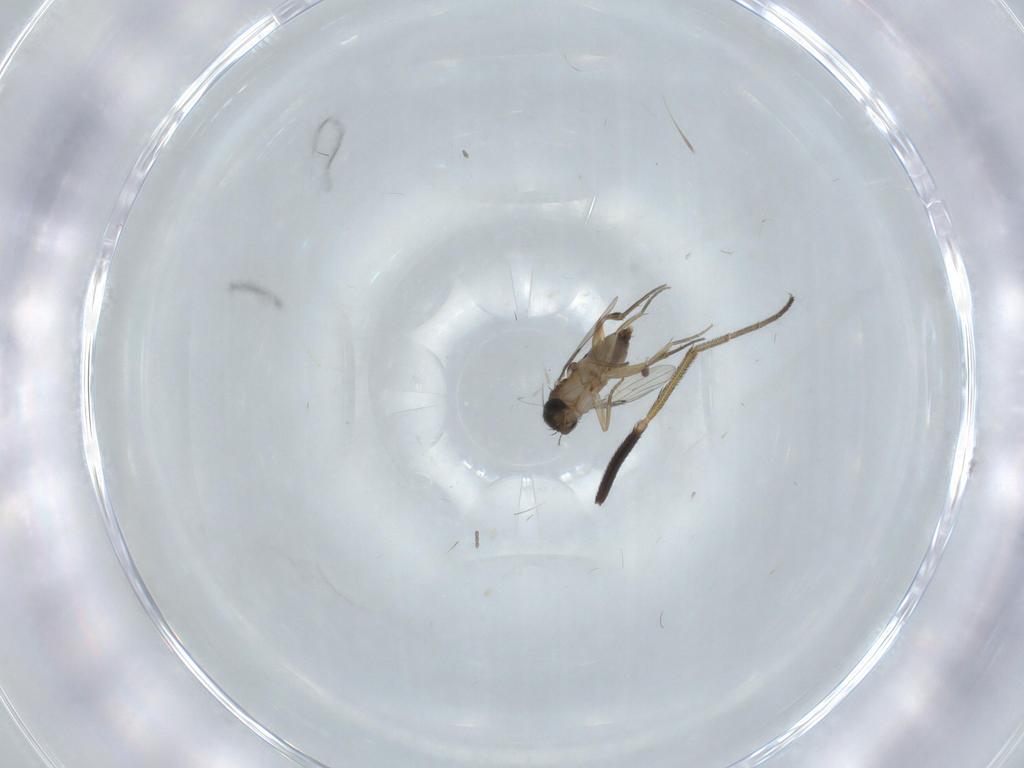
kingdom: Animalia
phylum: Arthropoda
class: Insecta
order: Diptera
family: Dolichopodidae
